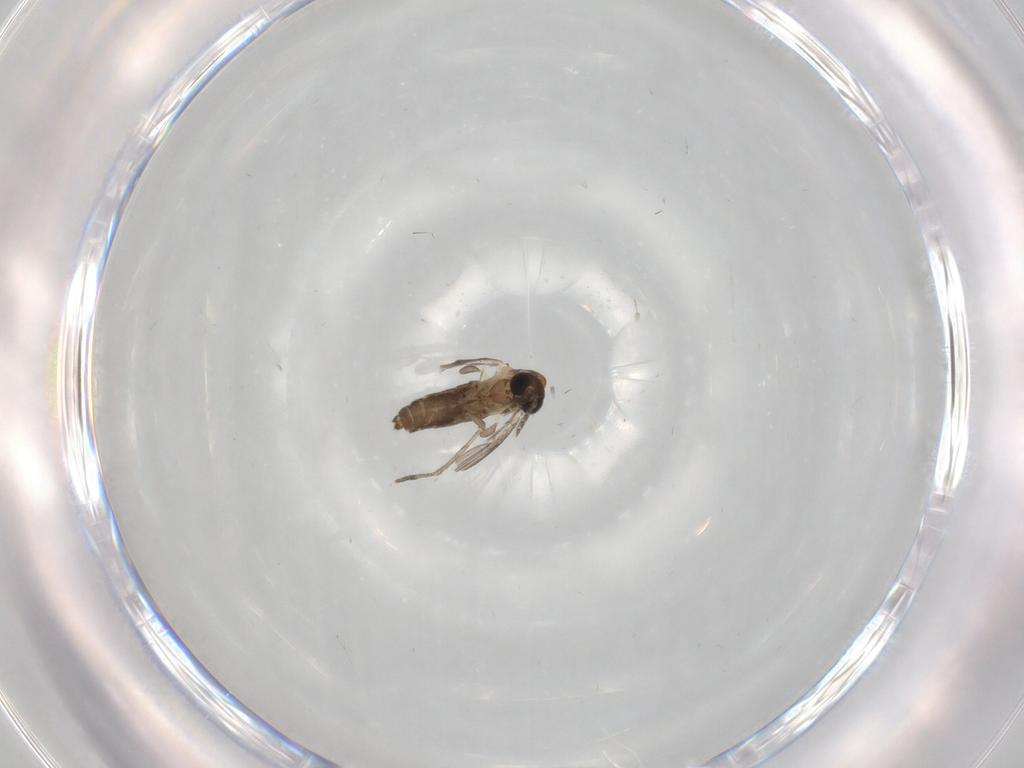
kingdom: Animalia
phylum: Arthropoda
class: Insecta
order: Diptera
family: Psychodidae
